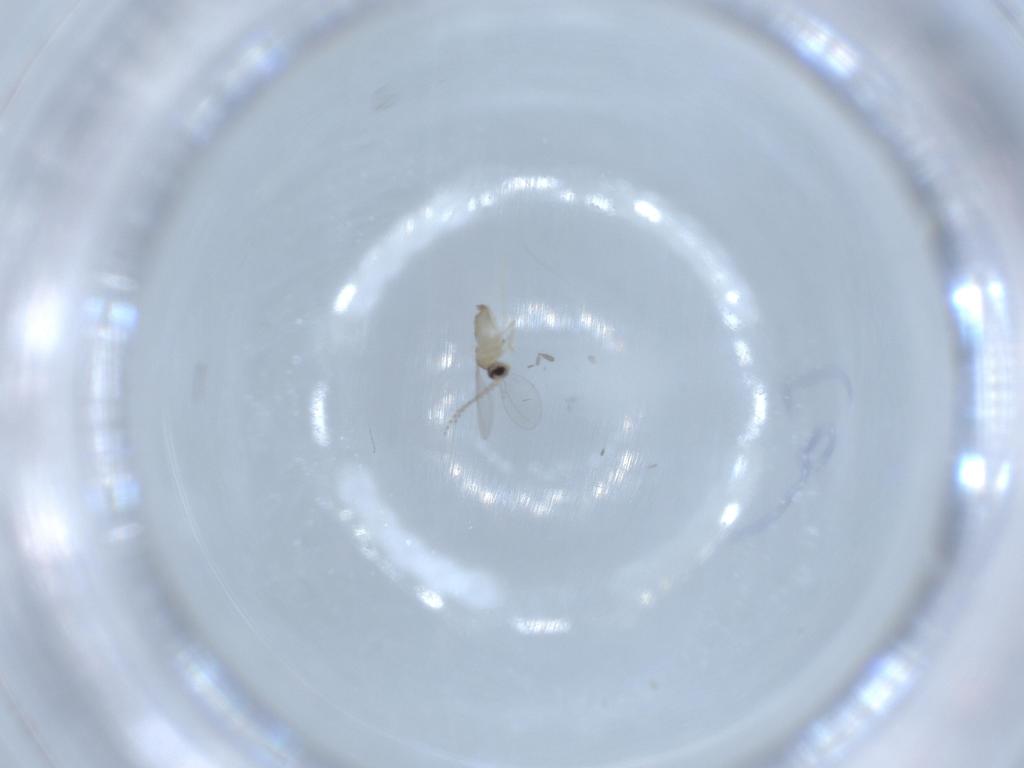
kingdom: Animalia
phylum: Arthropoda
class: Insecta
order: Diptera
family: Cecidomyiidae
